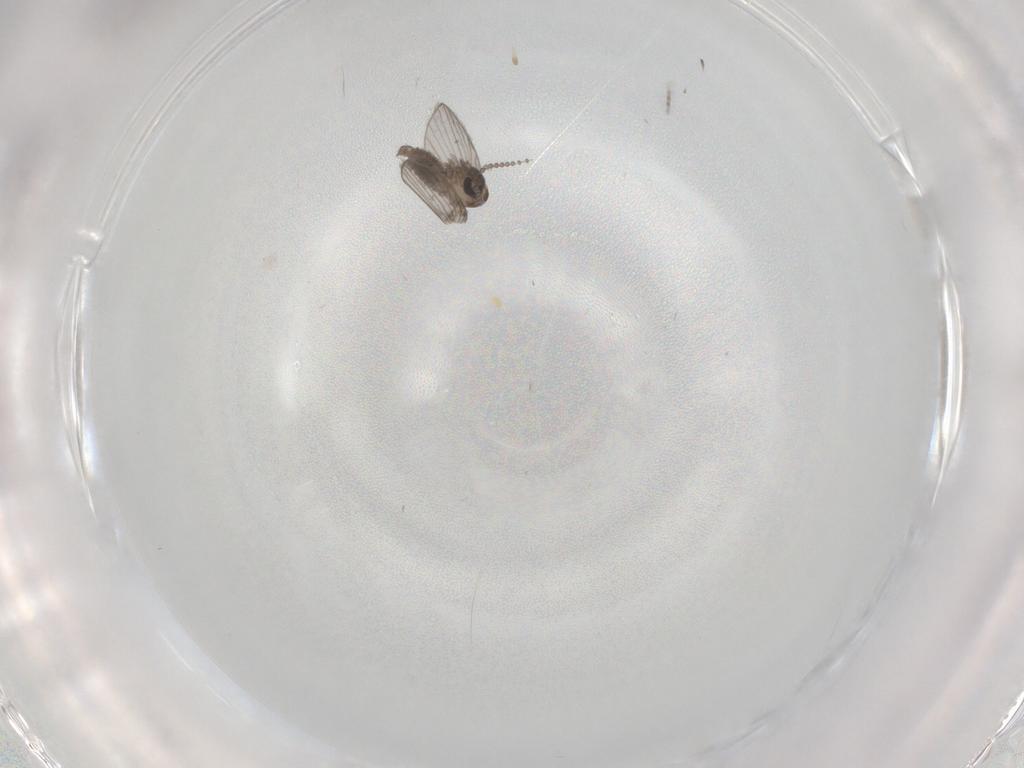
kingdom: Animalia
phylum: Arthropoda
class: Insecta
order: Diptera
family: Psychodidae
